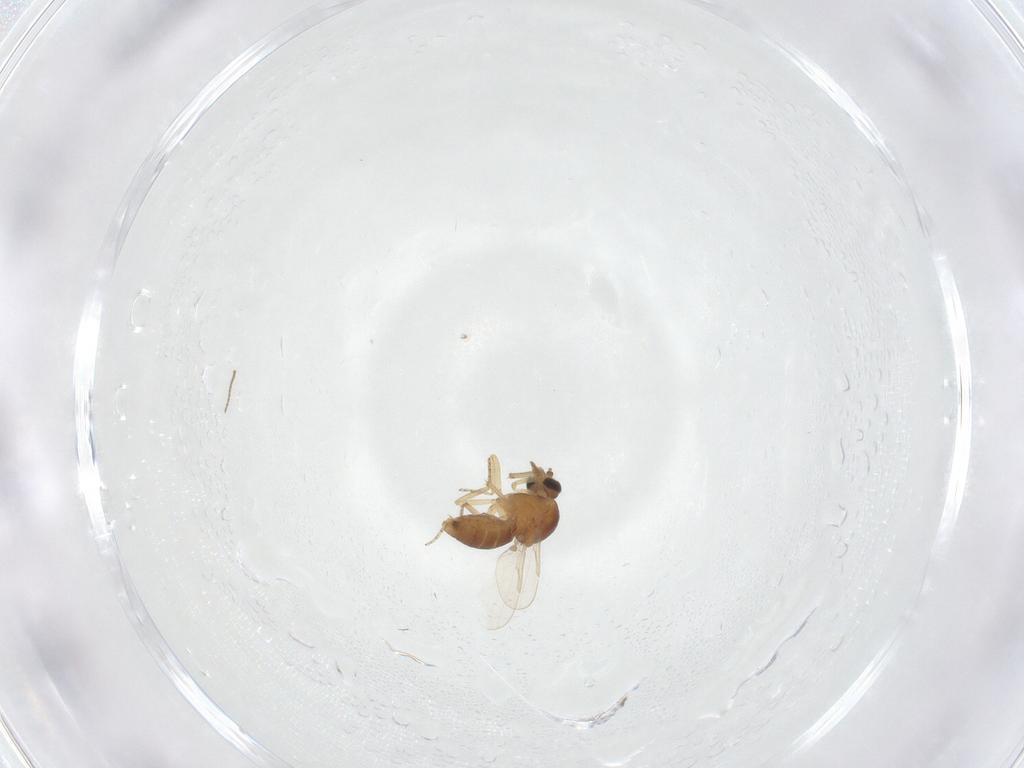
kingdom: Animalia
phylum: Arthropoda
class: Insecta
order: Diptera
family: Ceratopogonidae
